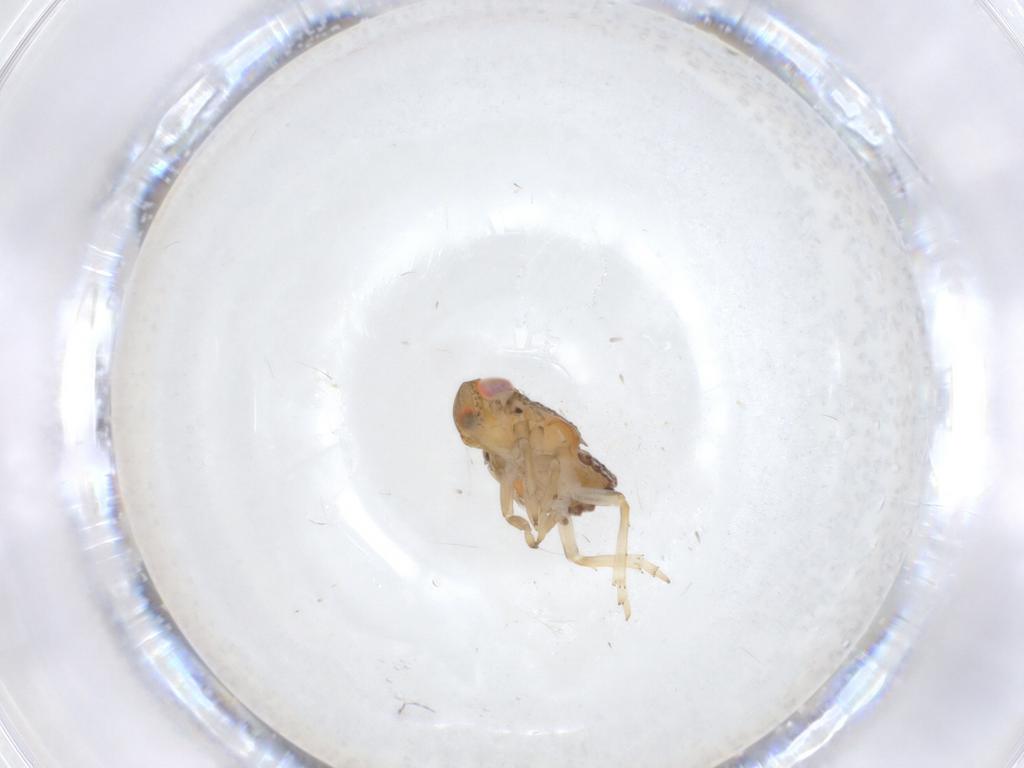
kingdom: Animalia
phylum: Arthropoda
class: Insecta
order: Hemiptera
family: Issidae
